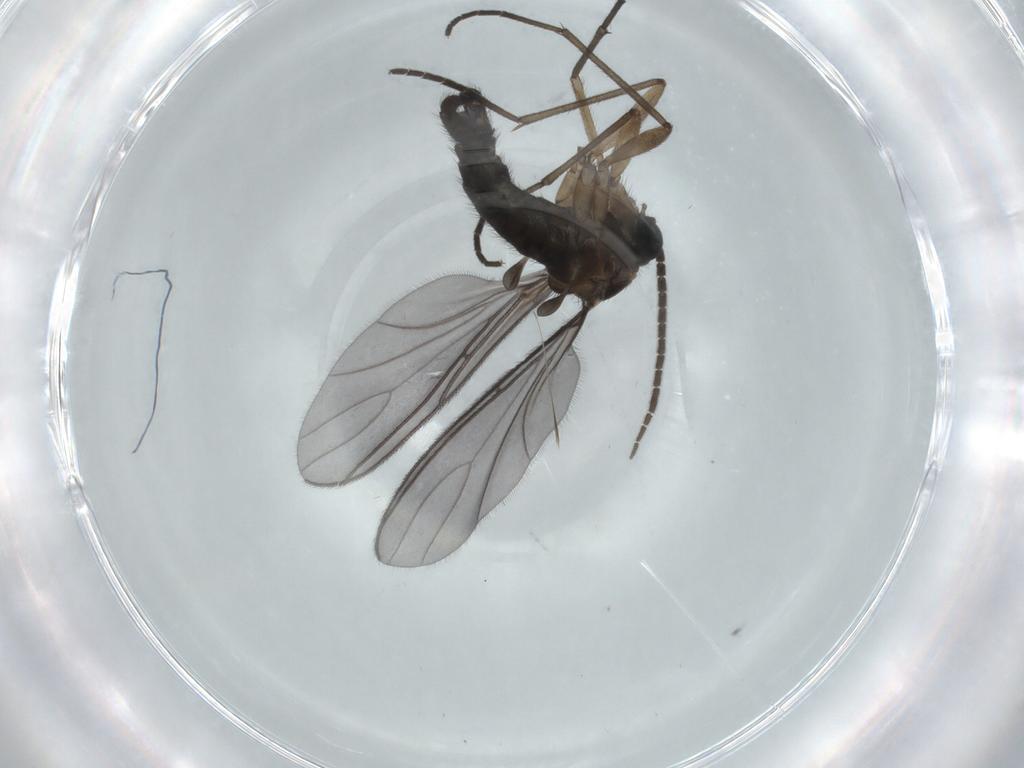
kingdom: Animalia
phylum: Arthropoda
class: Insecta
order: Diptera
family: Sciaridae
